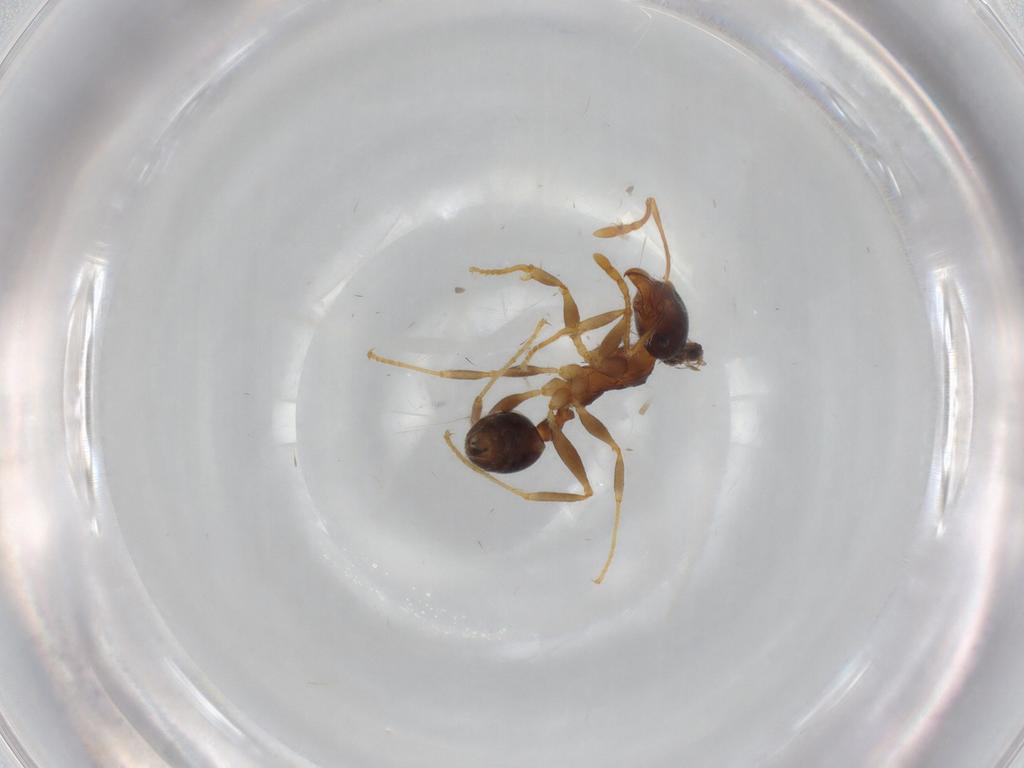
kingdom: Animalia
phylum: Arthropoda
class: Insecta
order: Hymenoptera
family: Trichogrammatidae
